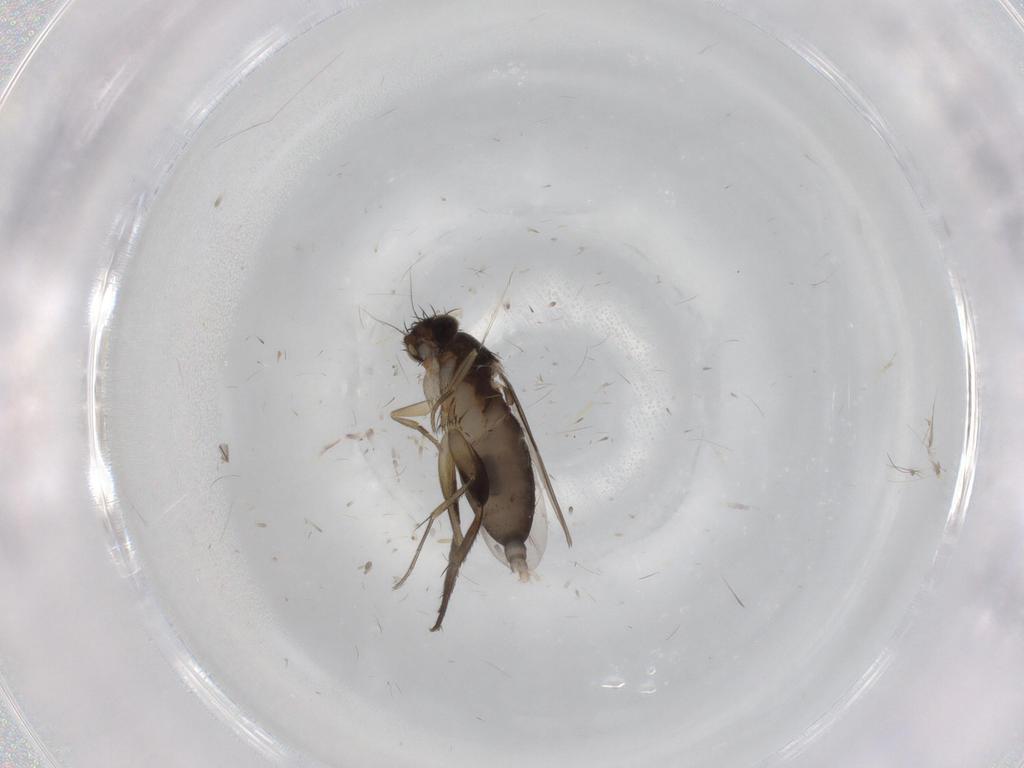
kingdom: Animalia
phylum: Arthropoda
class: Insecta
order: Diptera
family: Phoridae
